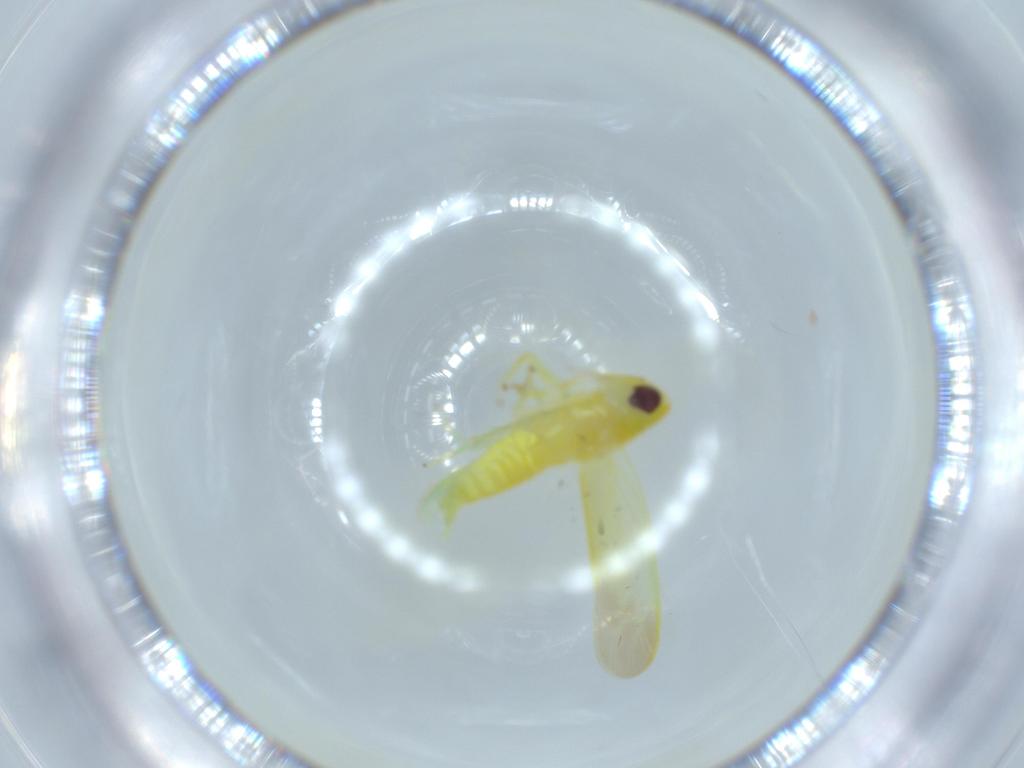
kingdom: Animalia
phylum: Arthropoda
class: Insecta
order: Hemiptera
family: Cicadellidae
